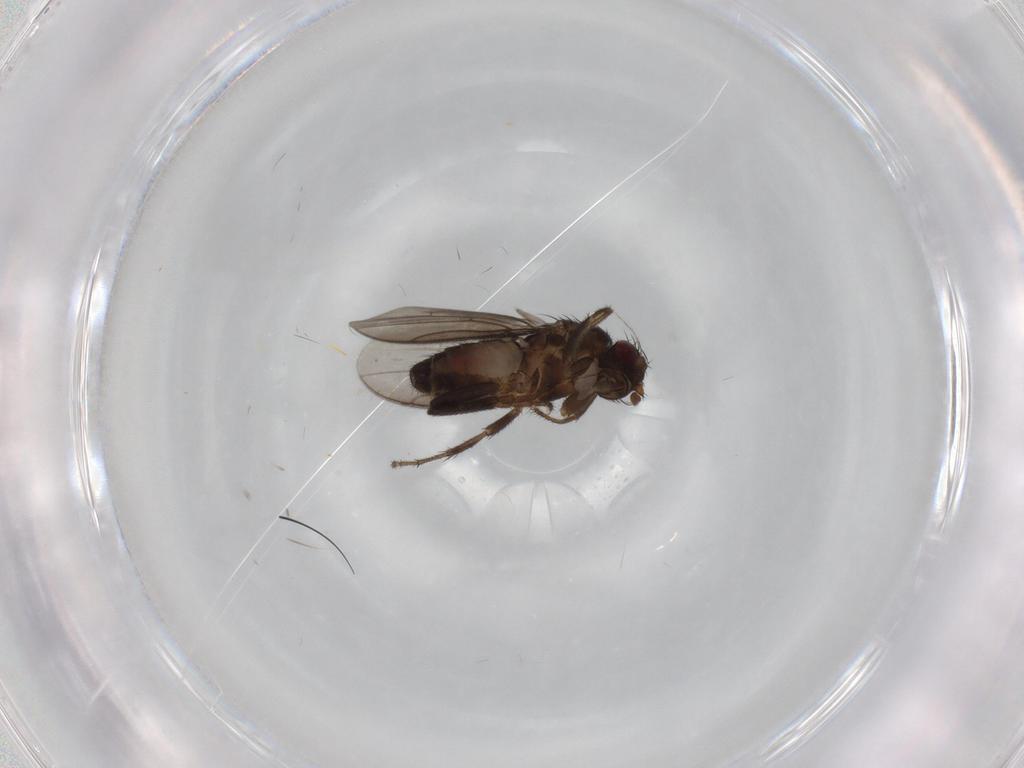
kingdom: Animalia
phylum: Arthropoda
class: Insecta
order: Diptera
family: Sphaeroceridae
